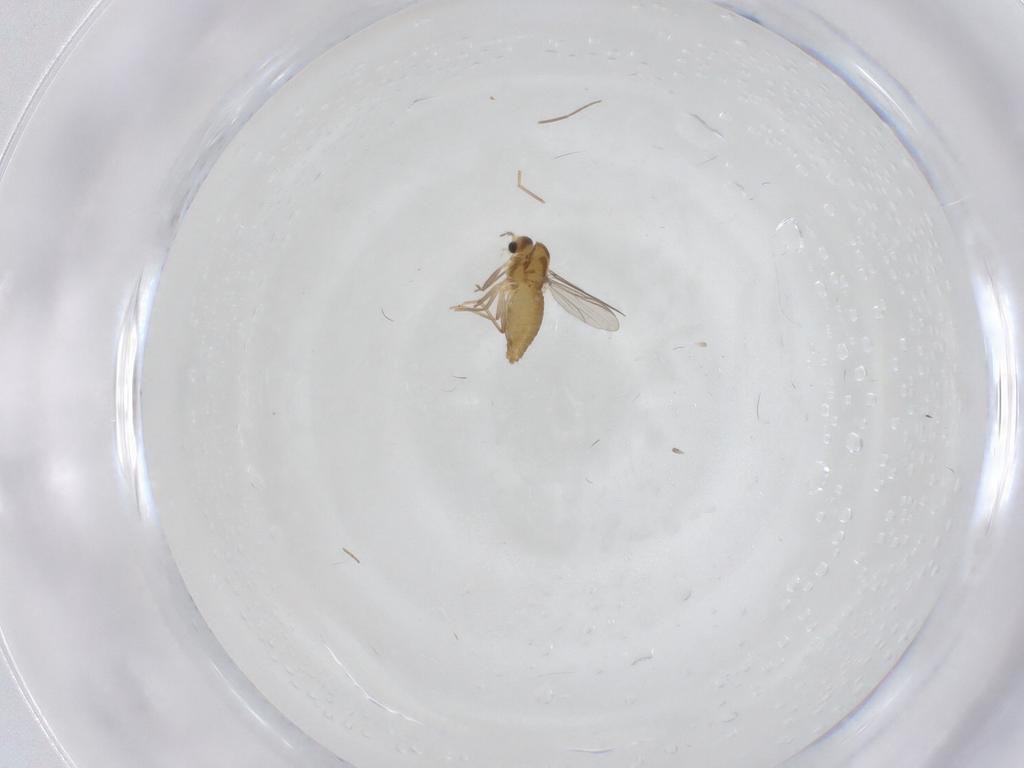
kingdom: Animalia
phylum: Arthropoda
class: Insecta
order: Diptera
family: Chironomidae
